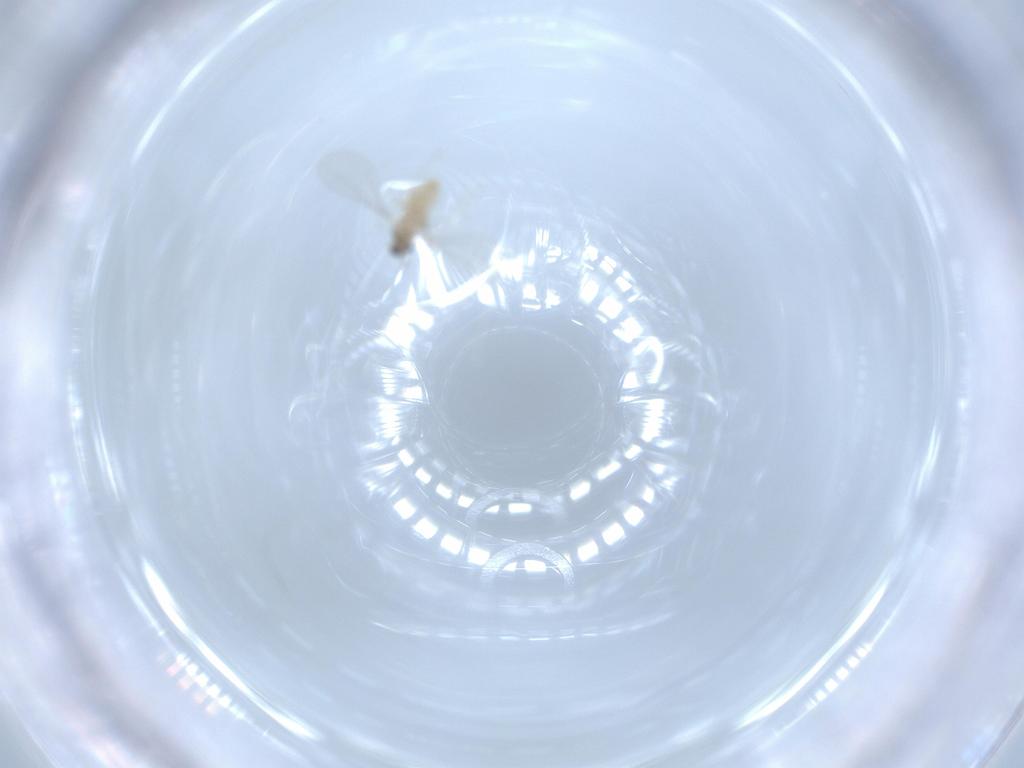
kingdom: Animalia
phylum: Arthropoda
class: Insecta
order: Diptera
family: Cecidomyiidae
